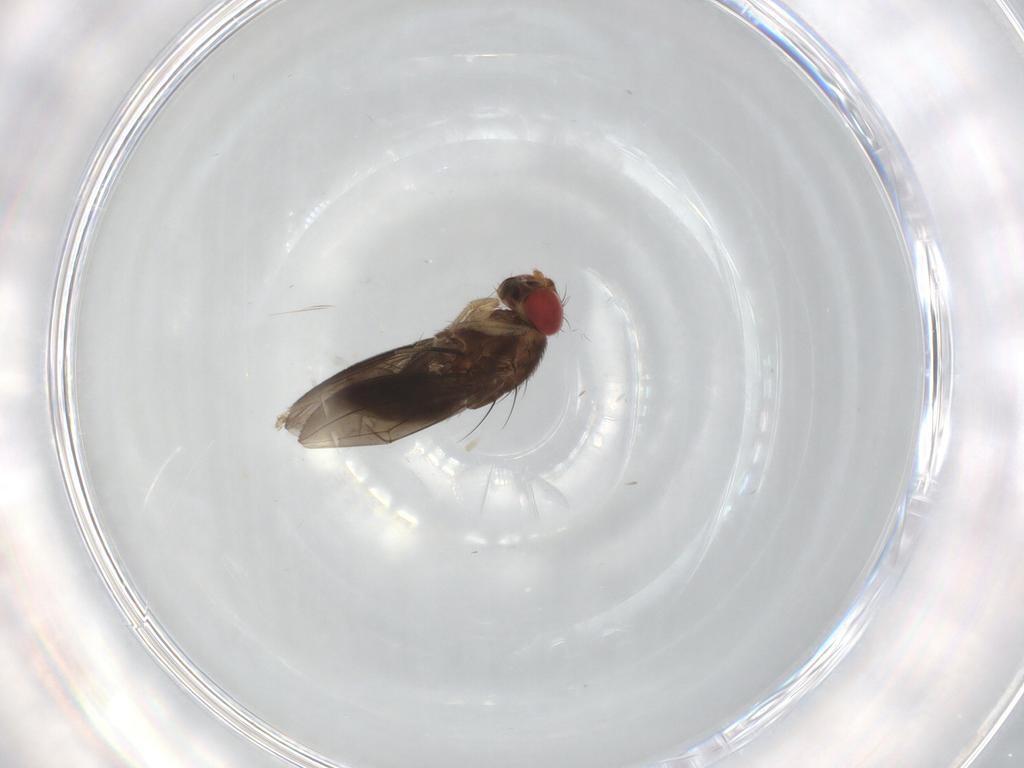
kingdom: Animalia
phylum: Arthropoda
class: Insecta
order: Diptera
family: Drosophilidae
